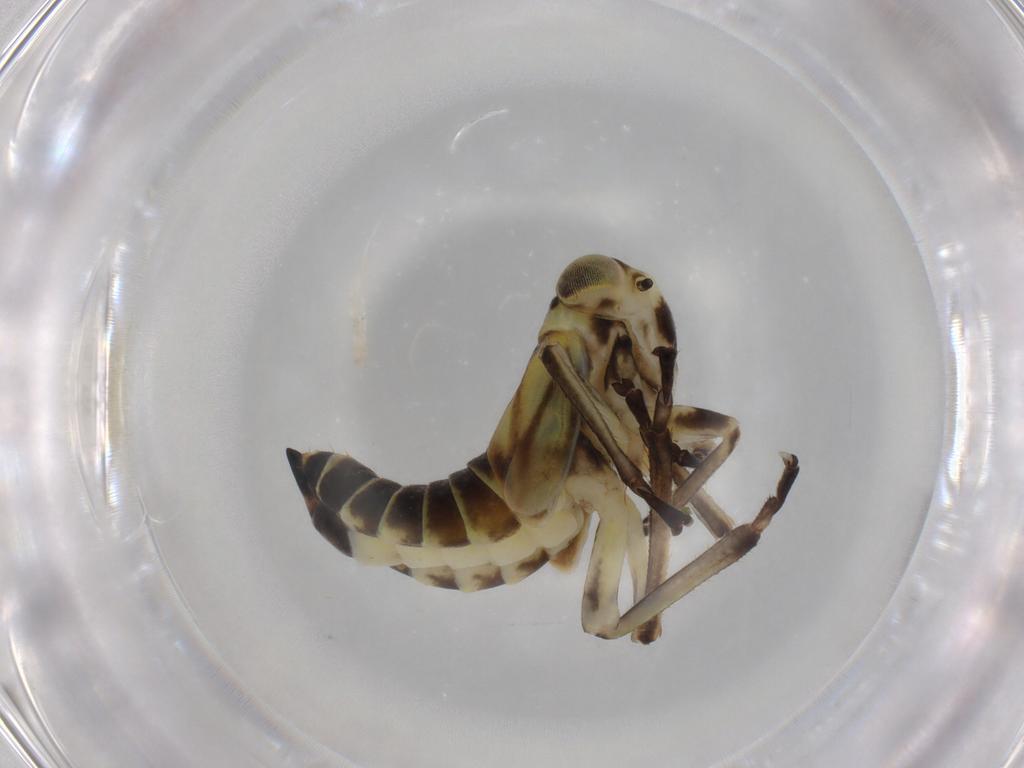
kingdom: Animalia
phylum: Arthropoda
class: Insecta
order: Hemiptera
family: Cicadellidae
